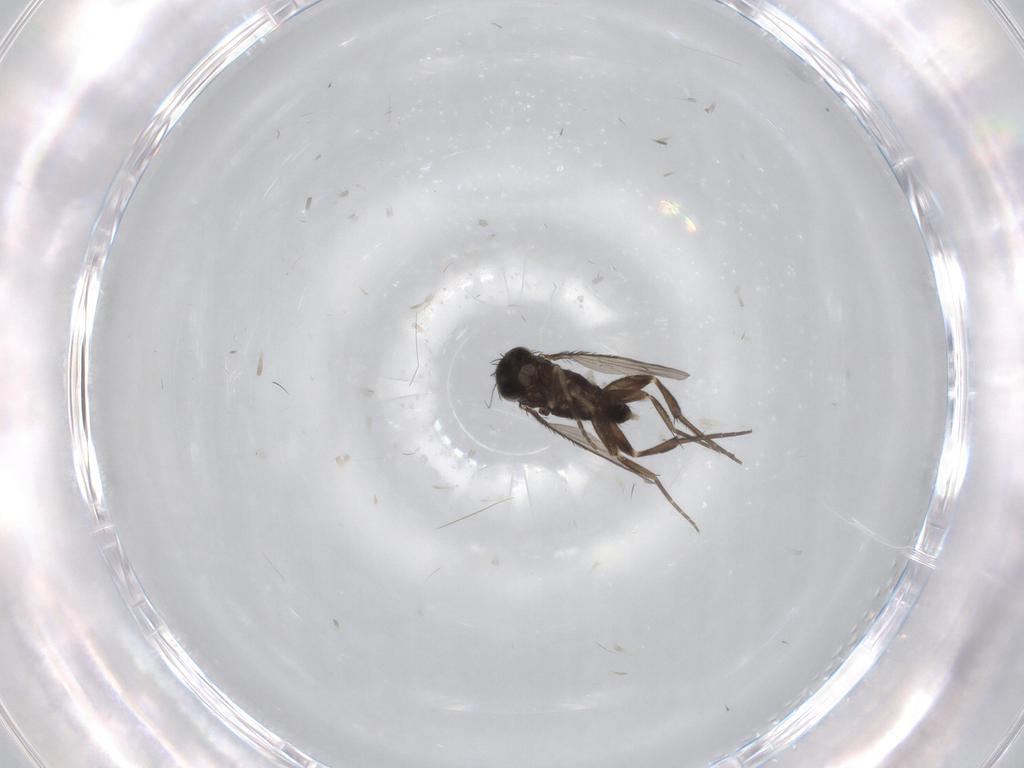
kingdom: Animalia
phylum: Arthropoda
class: Insecta
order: Diptera
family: Phoridae
